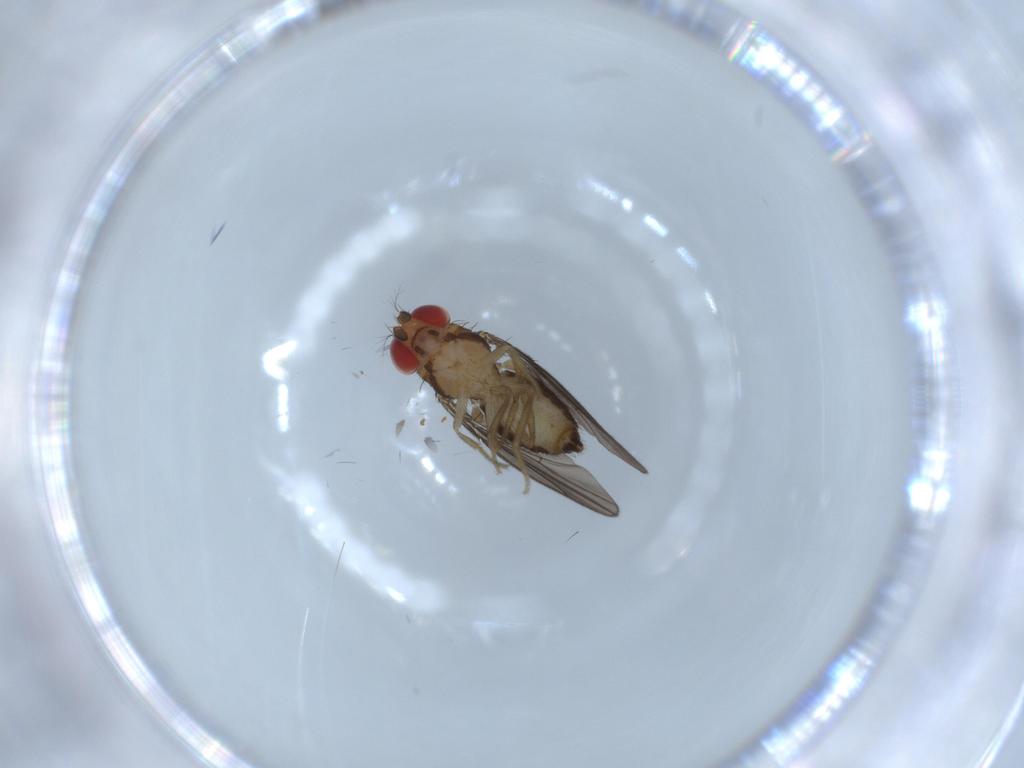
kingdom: Animalia
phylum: Arthropoda
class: Insecta
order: Diptera
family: Drosophilidae
